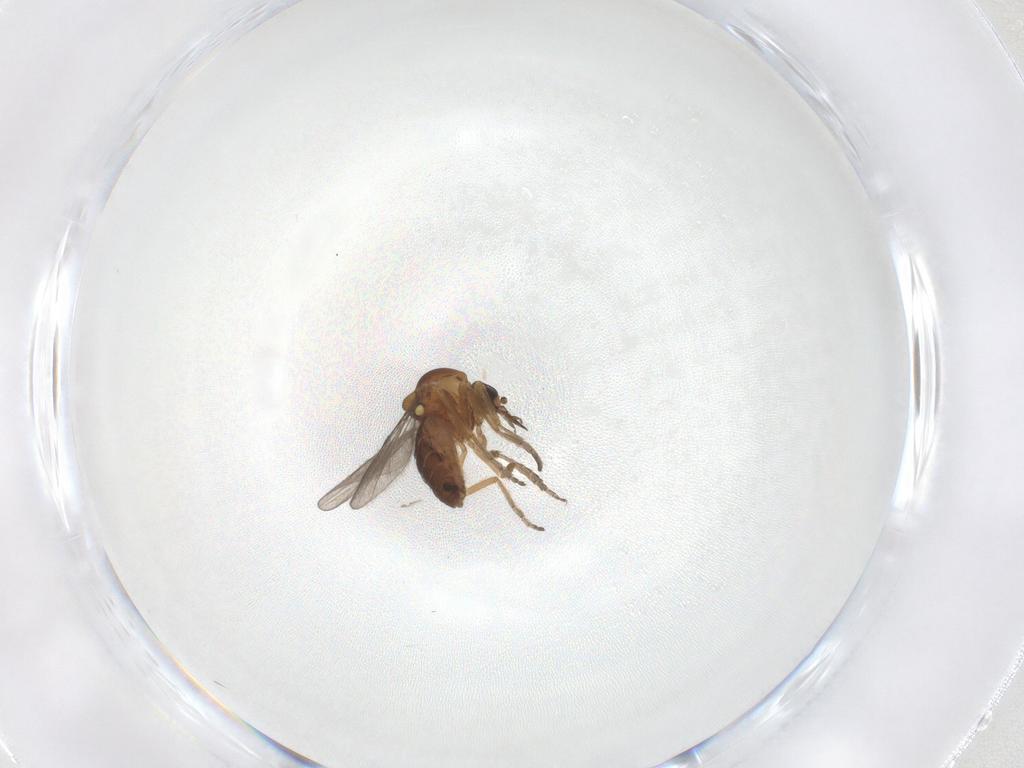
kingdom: Animalia
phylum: Arthropoda
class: Insecta
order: Diptera
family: Ceratopogonidae
